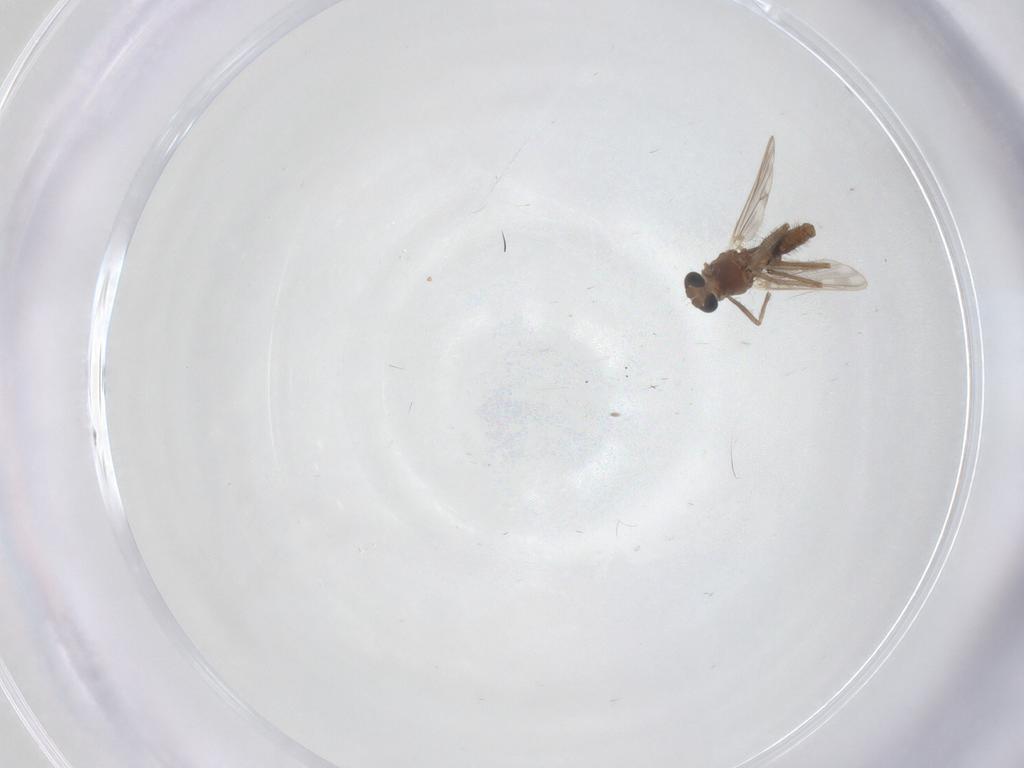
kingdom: Animalia
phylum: Arthropoda
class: Insecta
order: Diptera
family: Chironomidae
